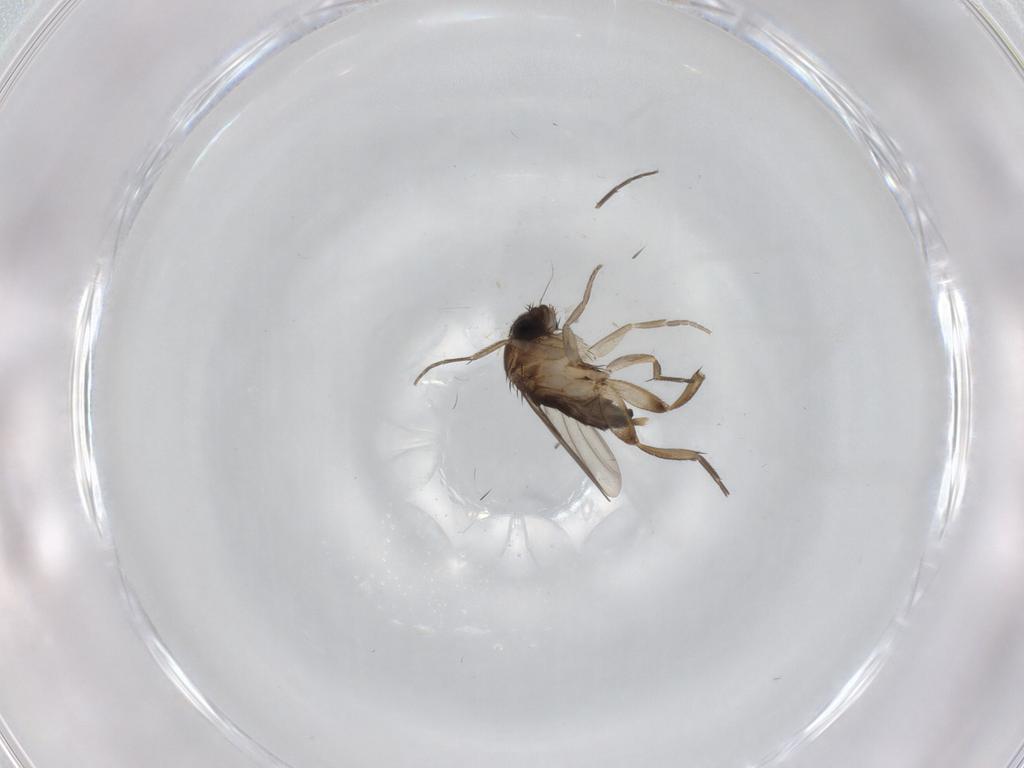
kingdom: Animalia
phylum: Arthropoda
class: Insecta
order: Diptera
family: Phoridae
